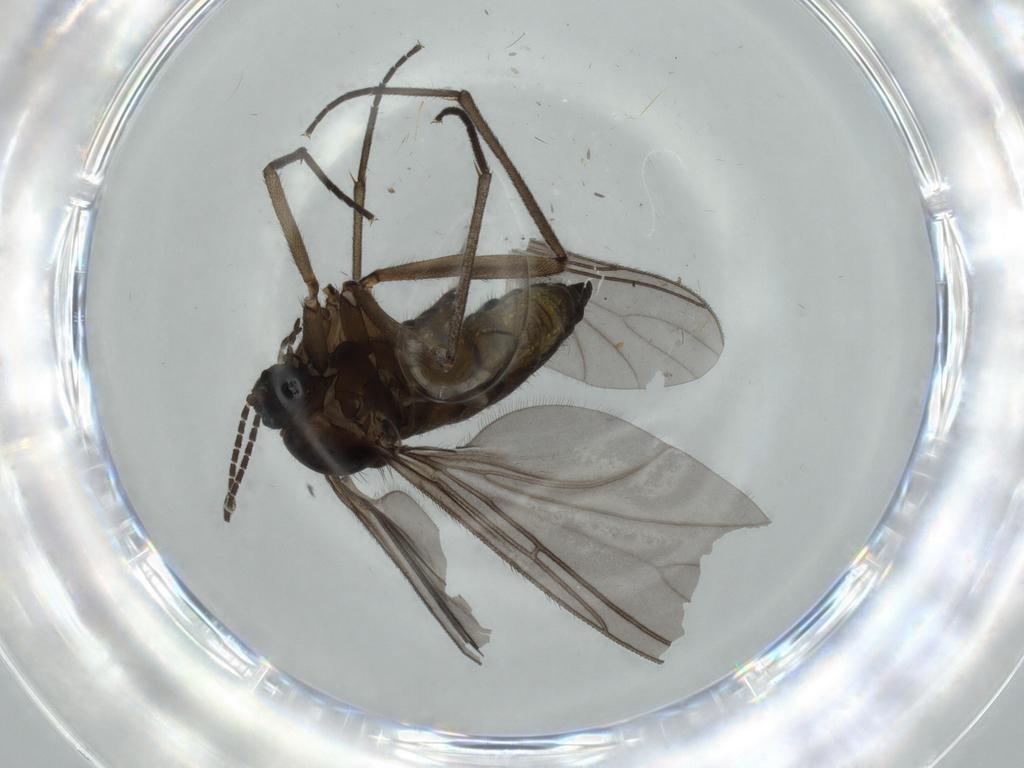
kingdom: Animalia
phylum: Arthropoda
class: Insecta
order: Diptera
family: Sciaridae
